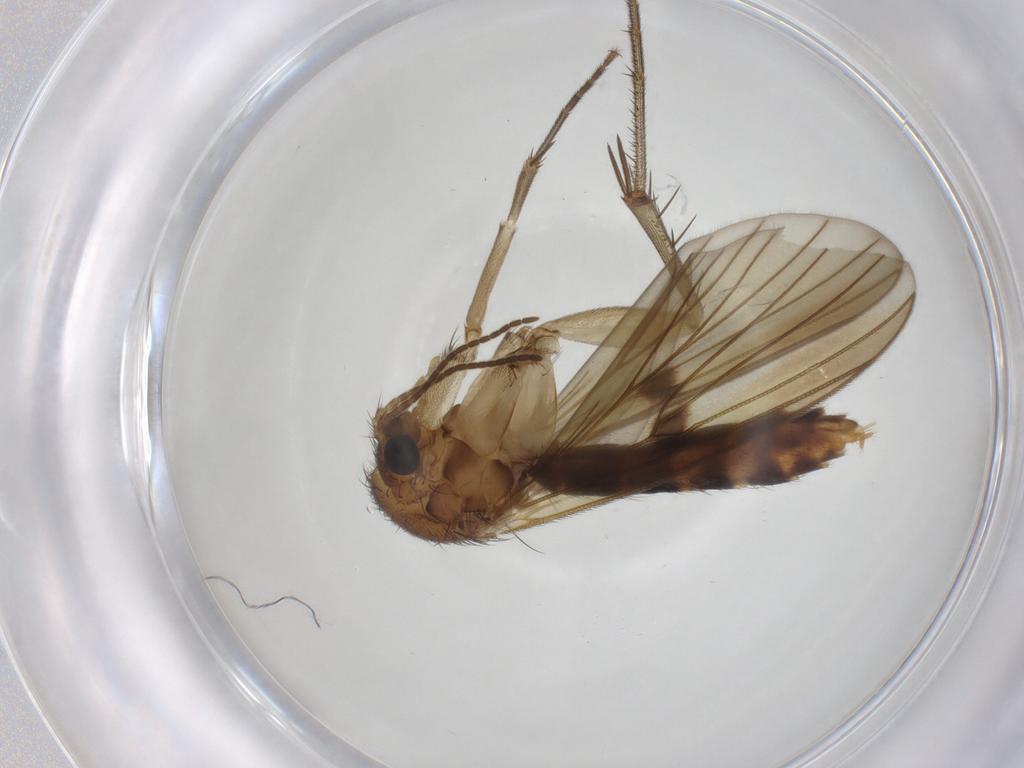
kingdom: Animalia
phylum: Arthropoda
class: Insecta
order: Diptera
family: Mycetophilidae
